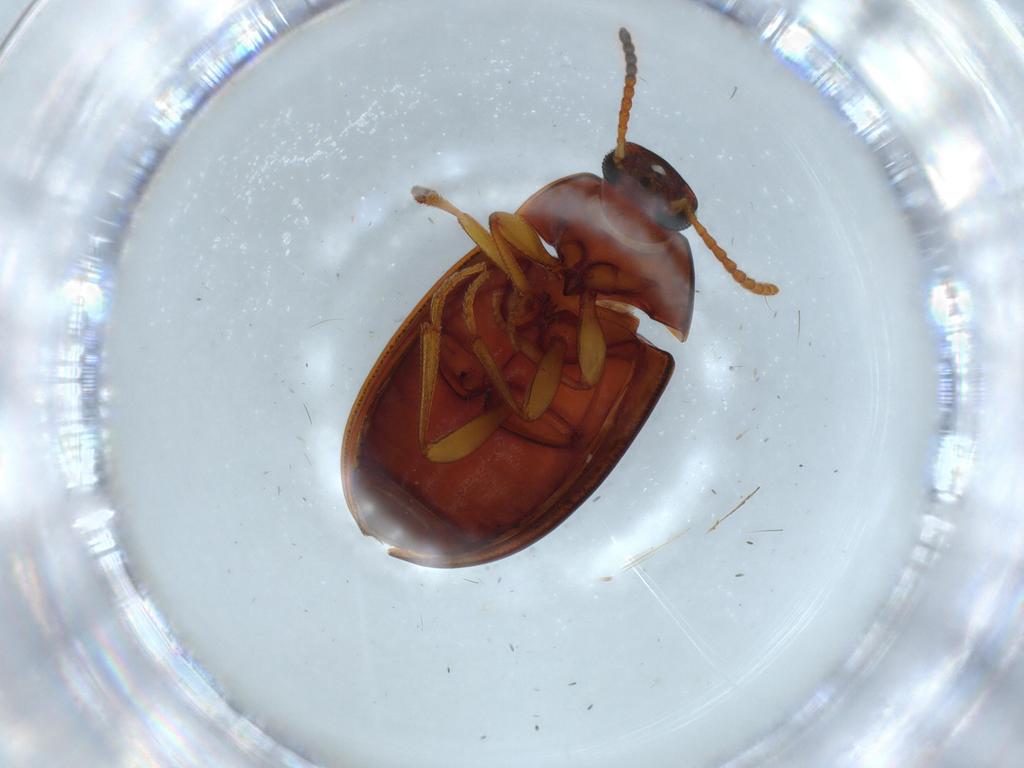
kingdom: Animalia
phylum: Arthropoda
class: Insecta
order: Coleoptera
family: Tenebrionidae
